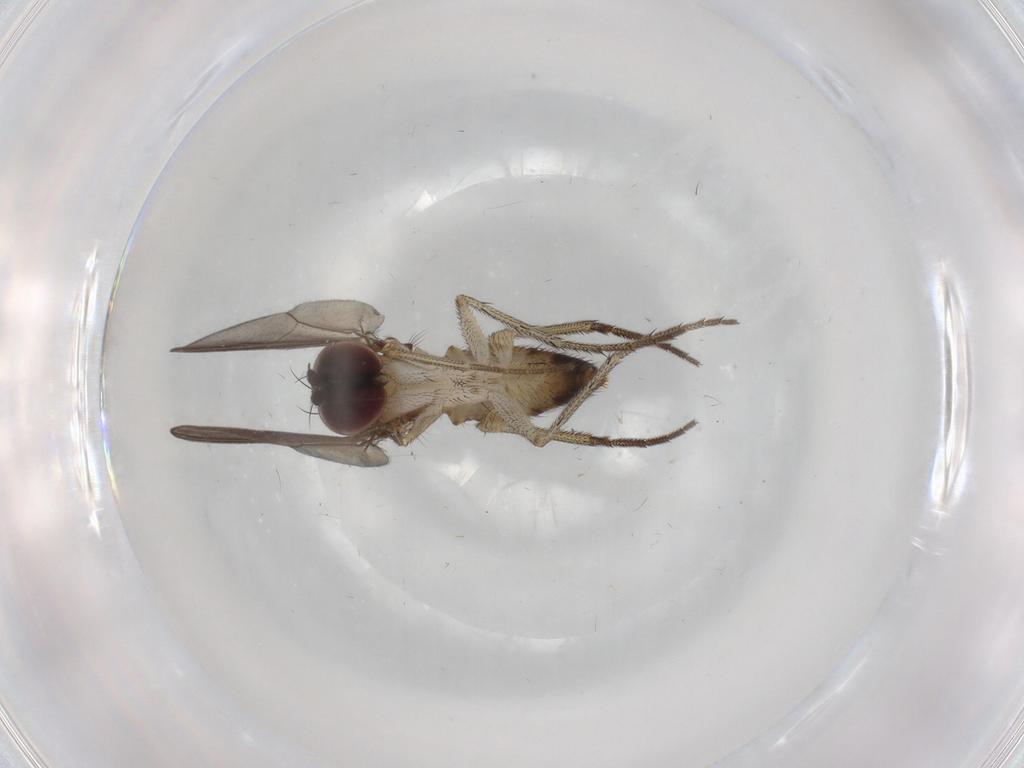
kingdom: Animalia
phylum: Arthropoda
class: Insecta
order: Diptera
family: Dolichopodidae
